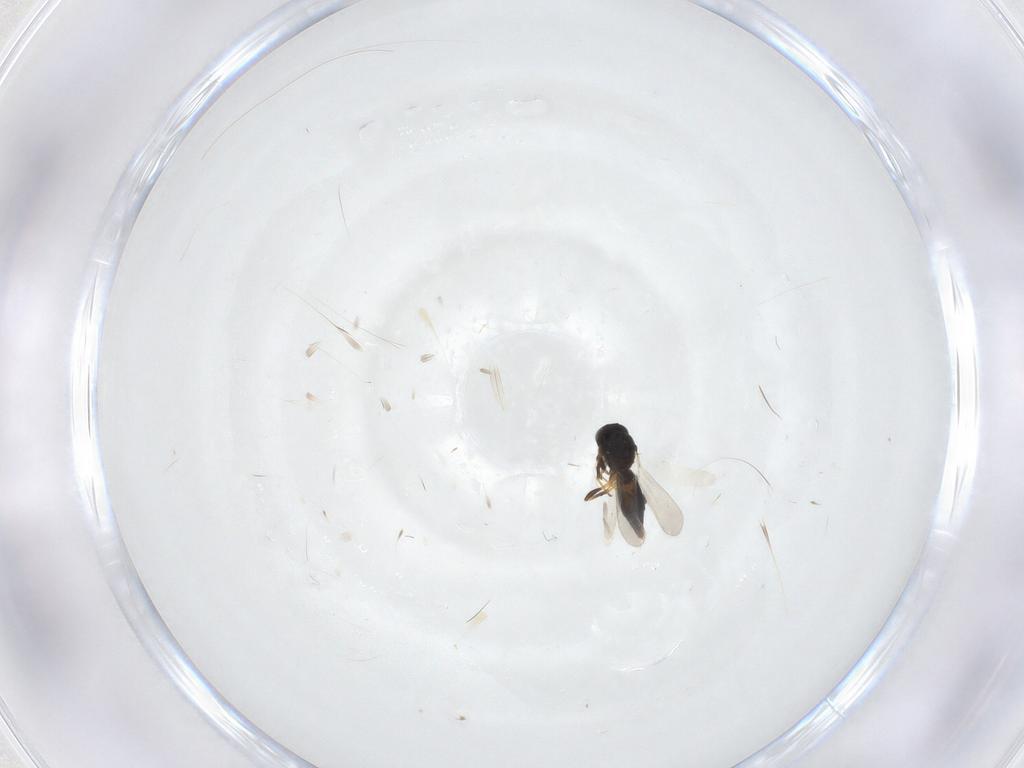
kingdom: Animalia
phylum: Arthropoda
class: Insecta
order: Hymenoptera
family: Platygastridae
